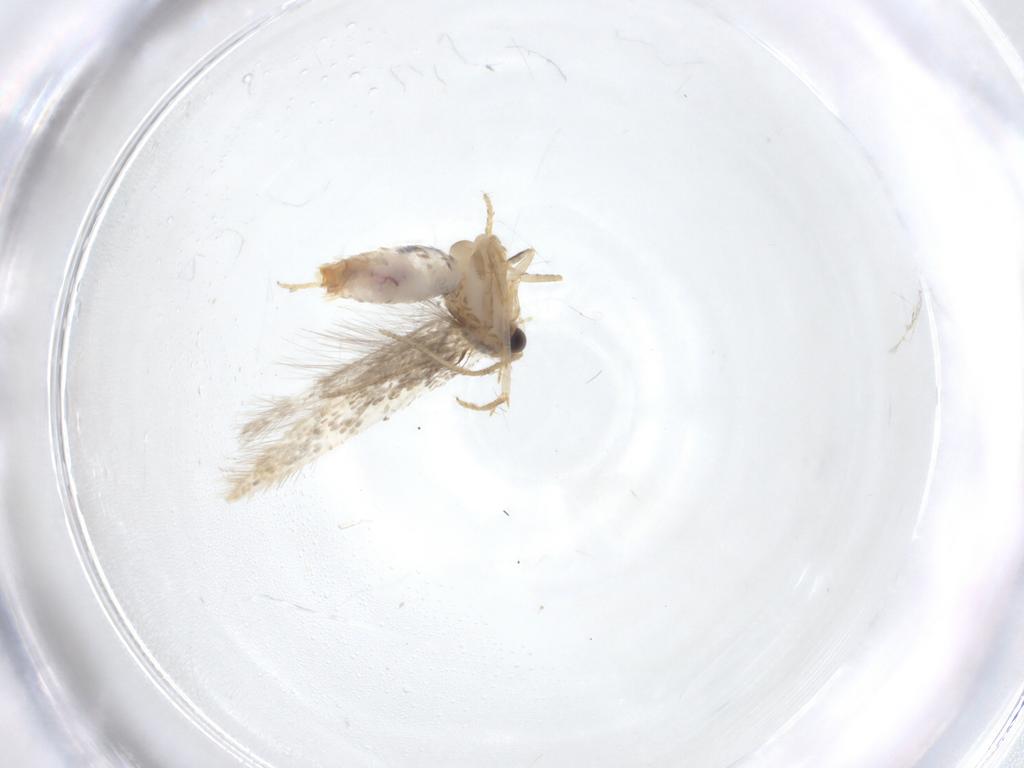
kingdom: Animalia
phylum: Arthropoda
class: Insecta
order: Lepidoptera
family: Nepticulidae
